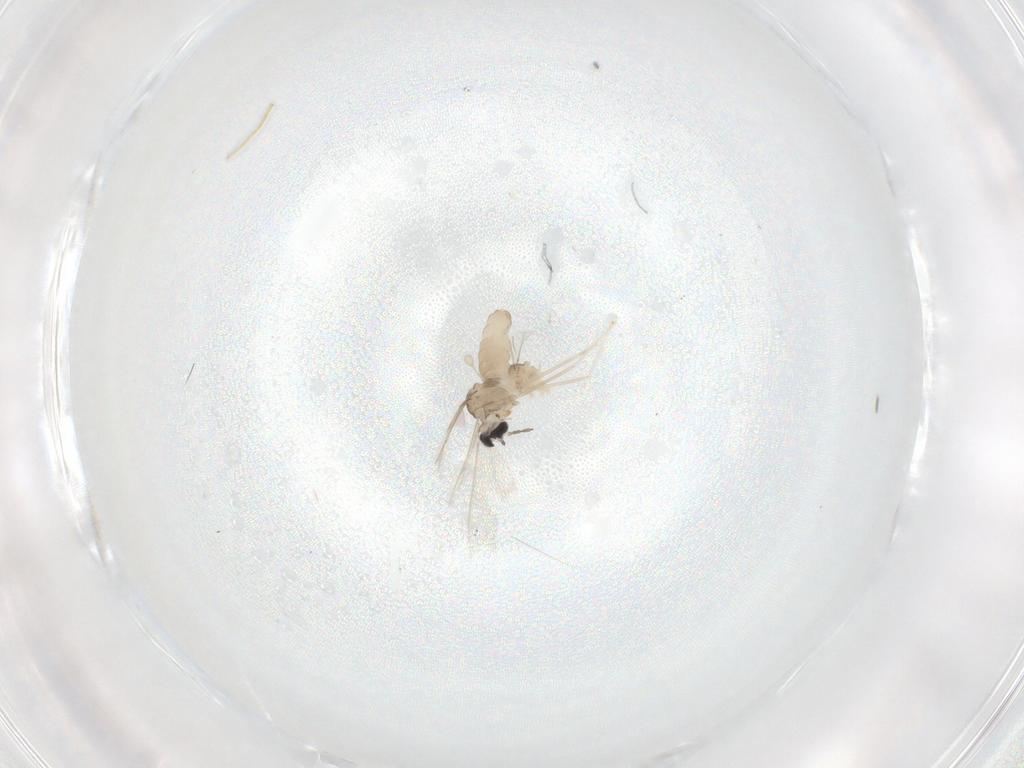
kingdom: Animalia
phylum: Arthropoda
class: Insecta
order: Diptera
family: Cecidomyiidae
